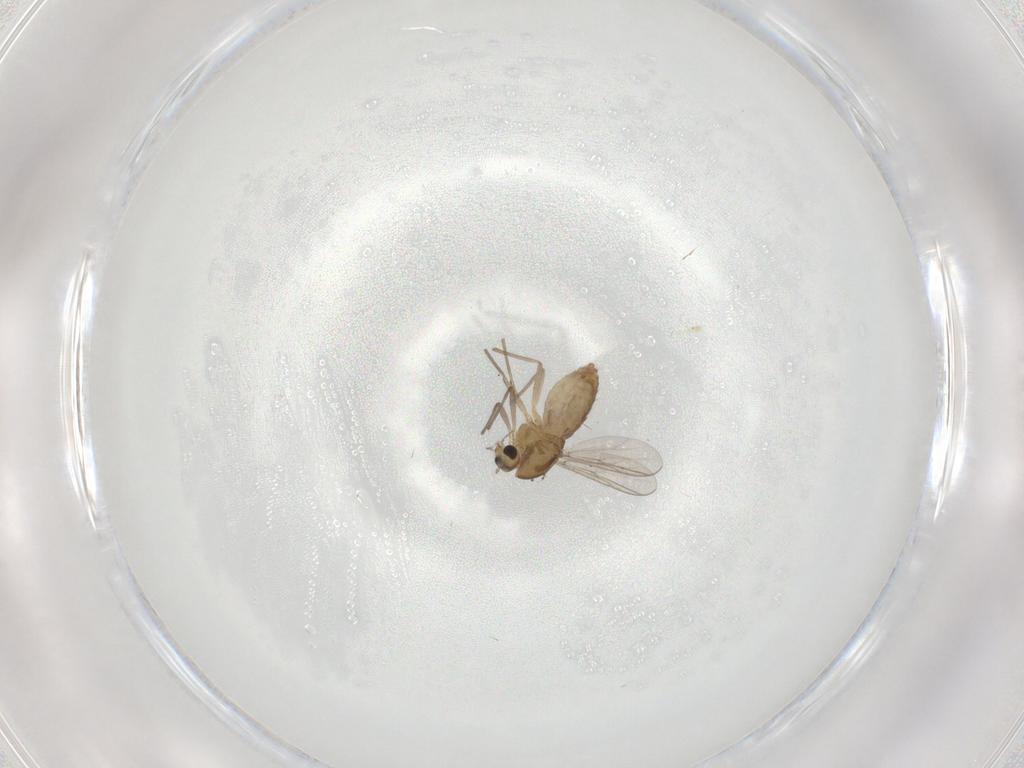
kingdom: Animalia
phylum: Arthropoda
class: Insecta
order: Diptera
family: Chironomidae
